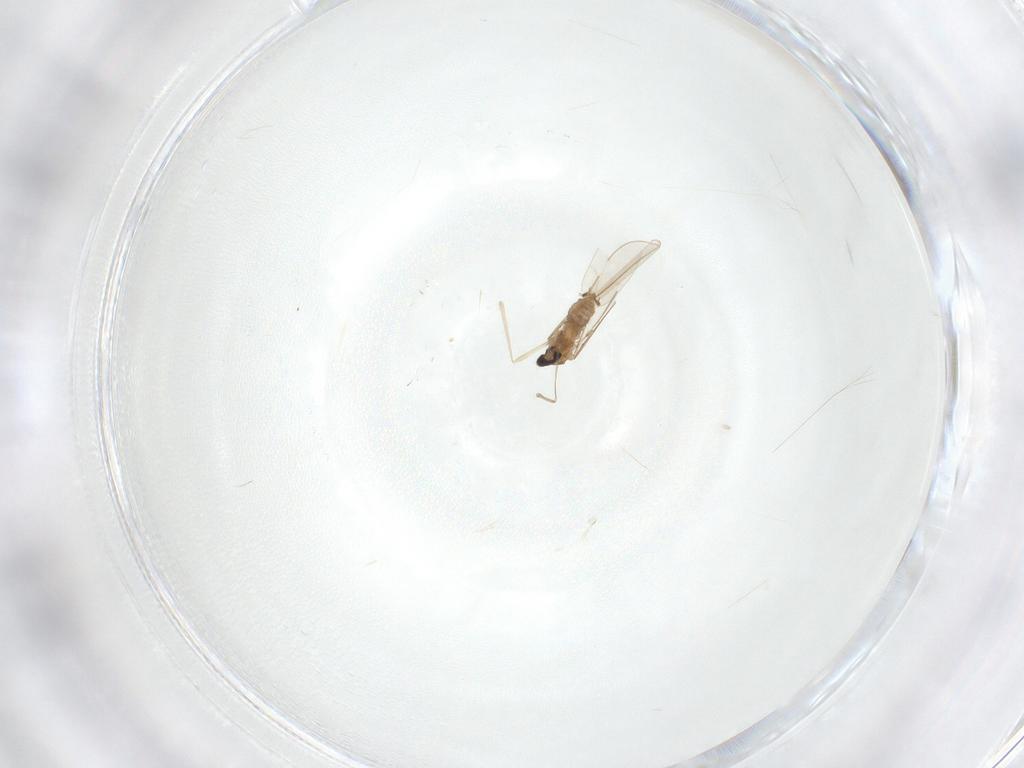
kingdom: Animalia
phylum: Arthropoda
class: Insecta
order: Diptera
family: Cecidomyiidae
